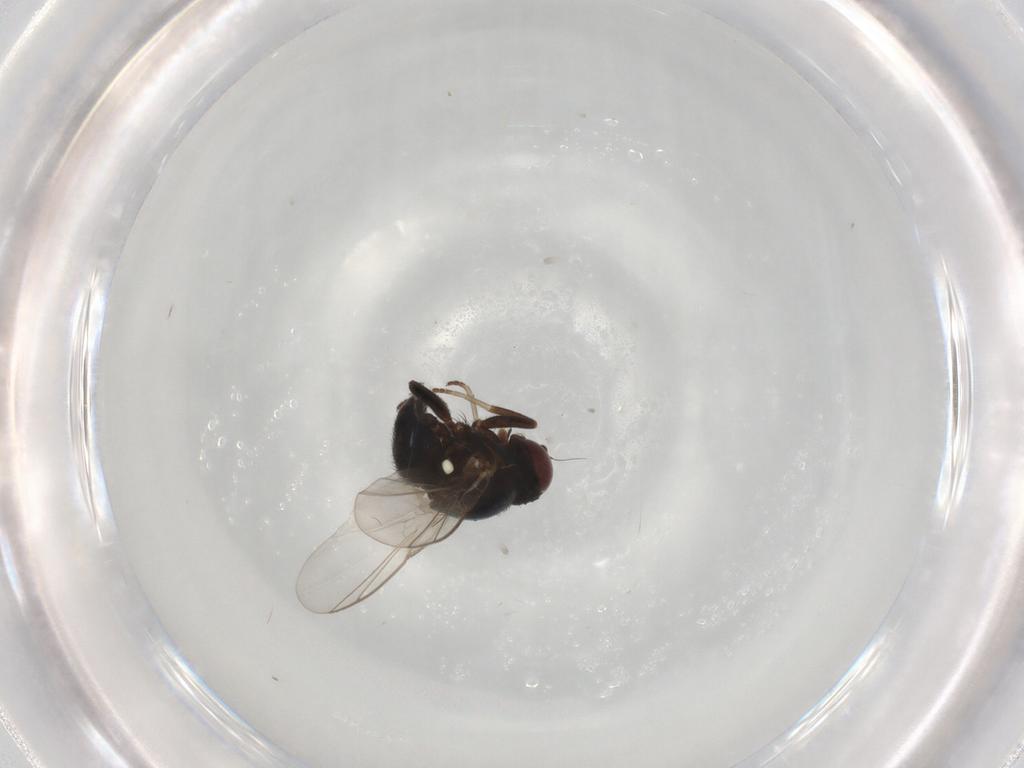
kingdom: Animalia
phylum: Arthropoda
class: Insecta
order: Diptera
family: Agromyzidae
